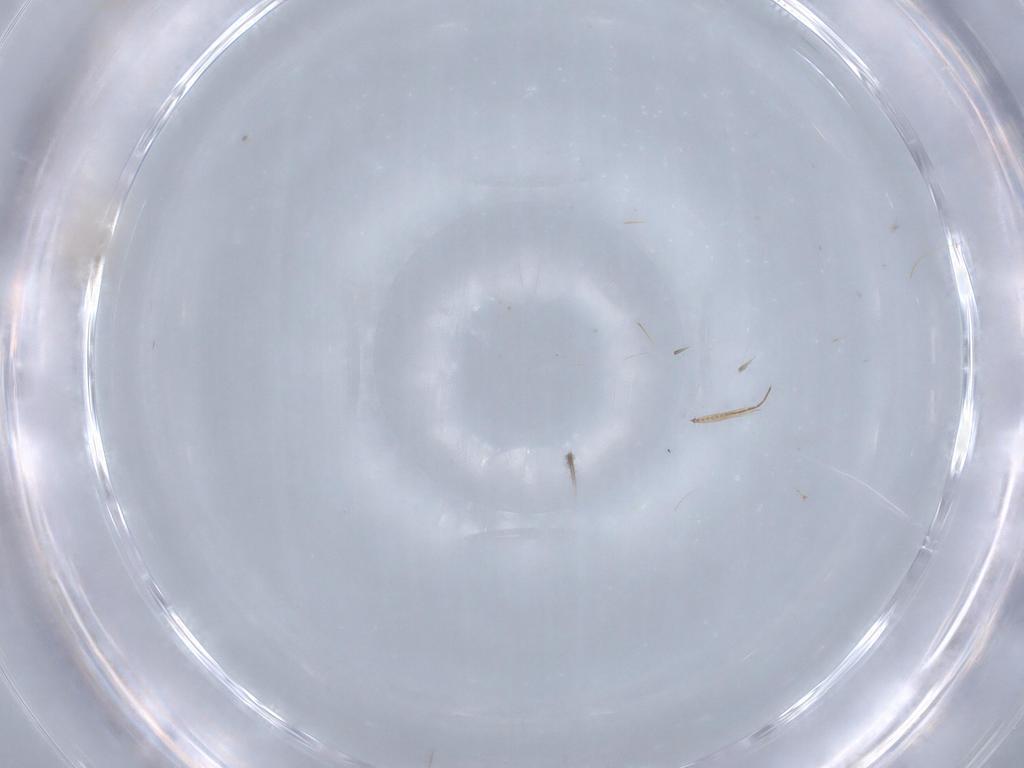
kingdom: Animalia
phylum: Arthropoda
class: Insecta
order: Diptera
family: Cecidomyiidae
